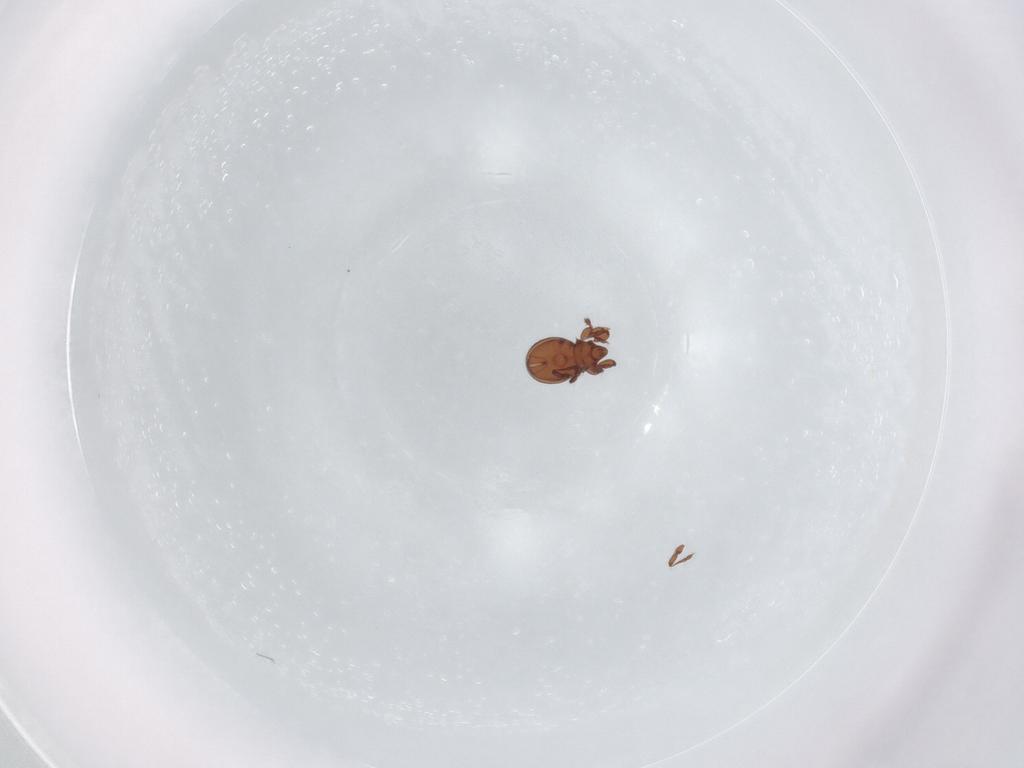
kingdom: Animalia
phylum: Arthropoda
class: Arachnida
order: Sarcoptiformes
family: Eremaeidae
